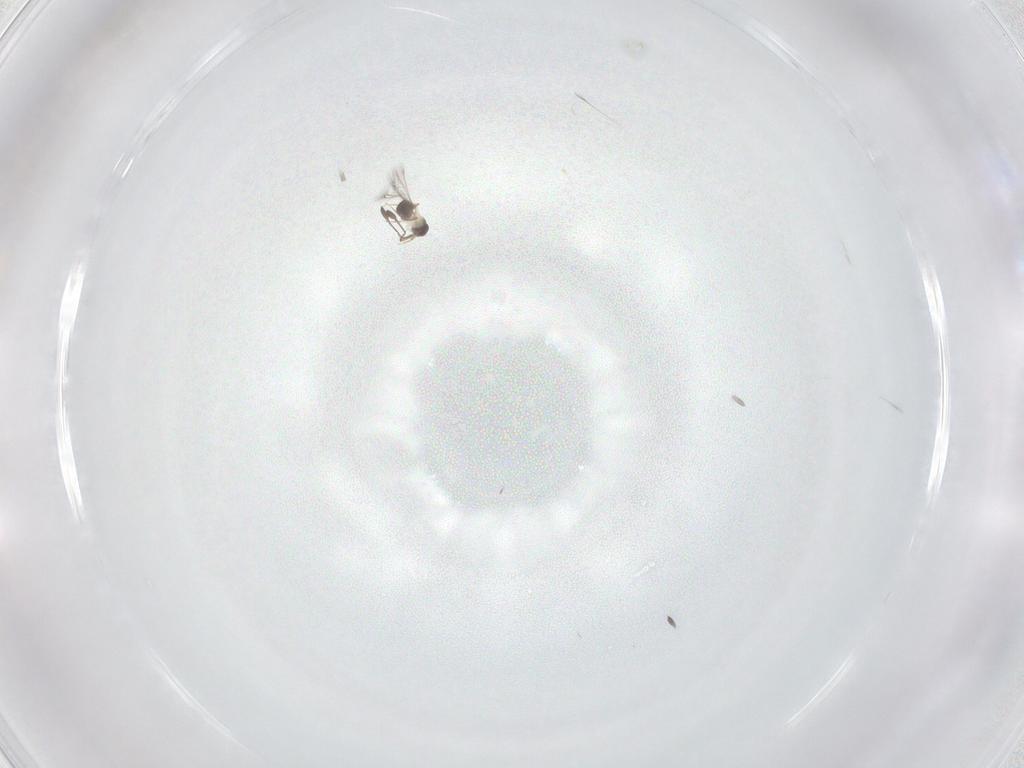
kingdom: Animalia
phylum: Arthropoda
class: Insecta
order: Hymenoptera
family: Mymaridae
